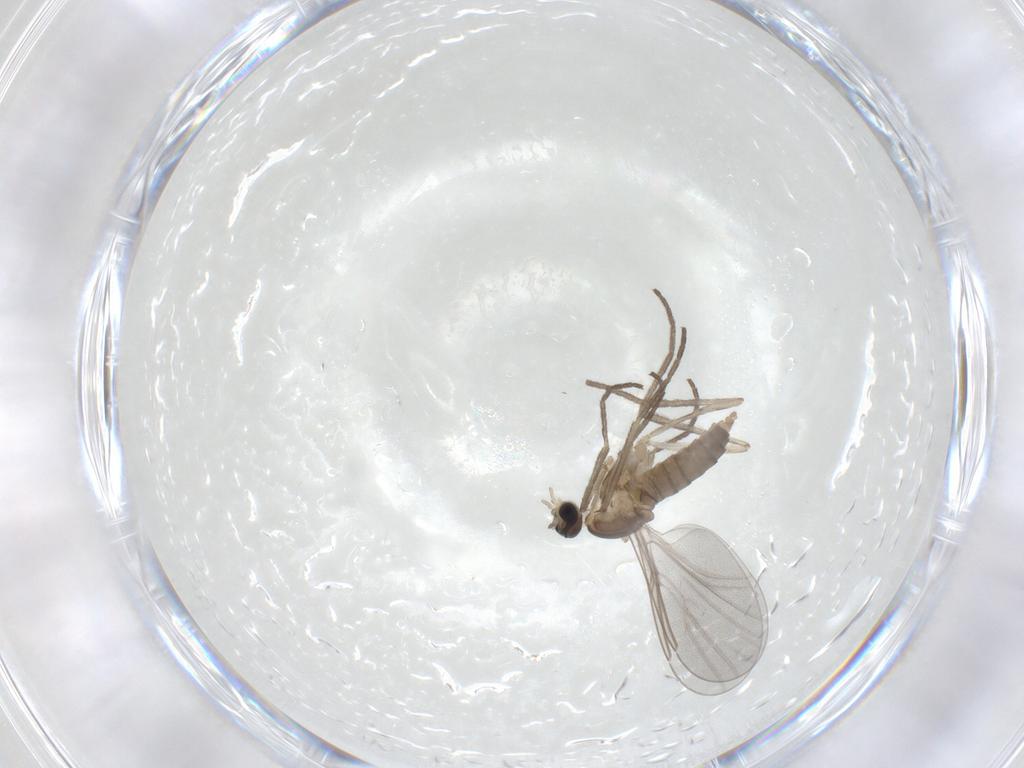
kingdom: Animalia
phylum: Arthropoda
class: Insecta
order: Diptera
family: Cecidomyiidae
